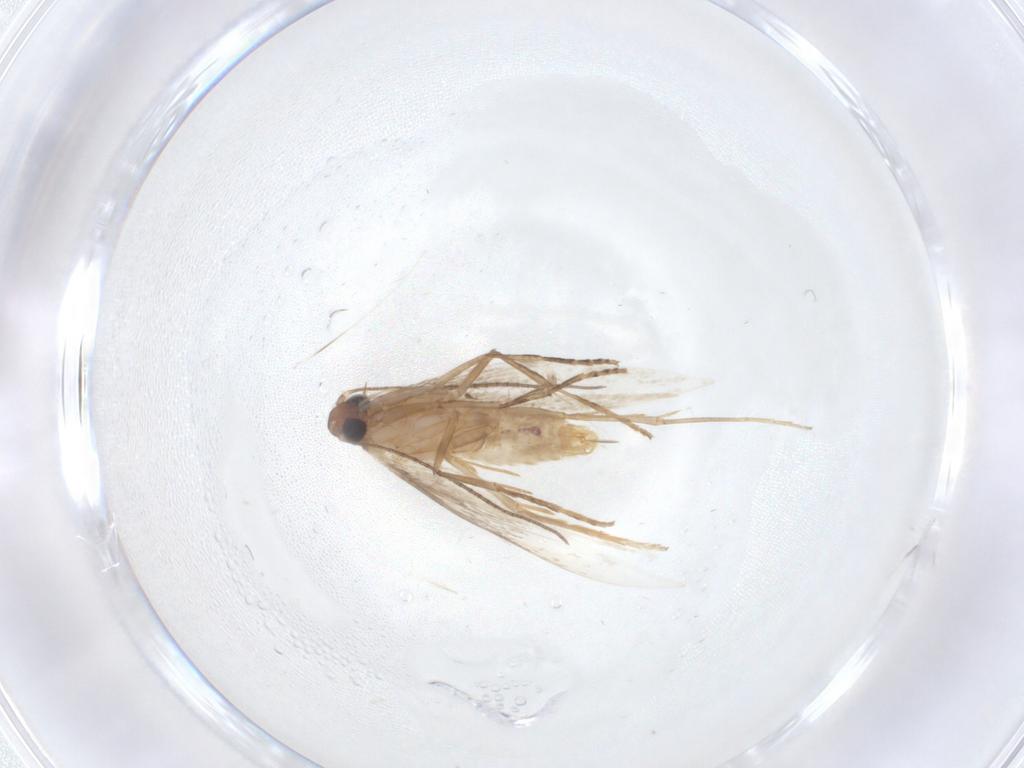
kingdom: Animalia
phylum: Arthropoda
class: Insecta
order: Lepidoptera
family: Tischeriidae
